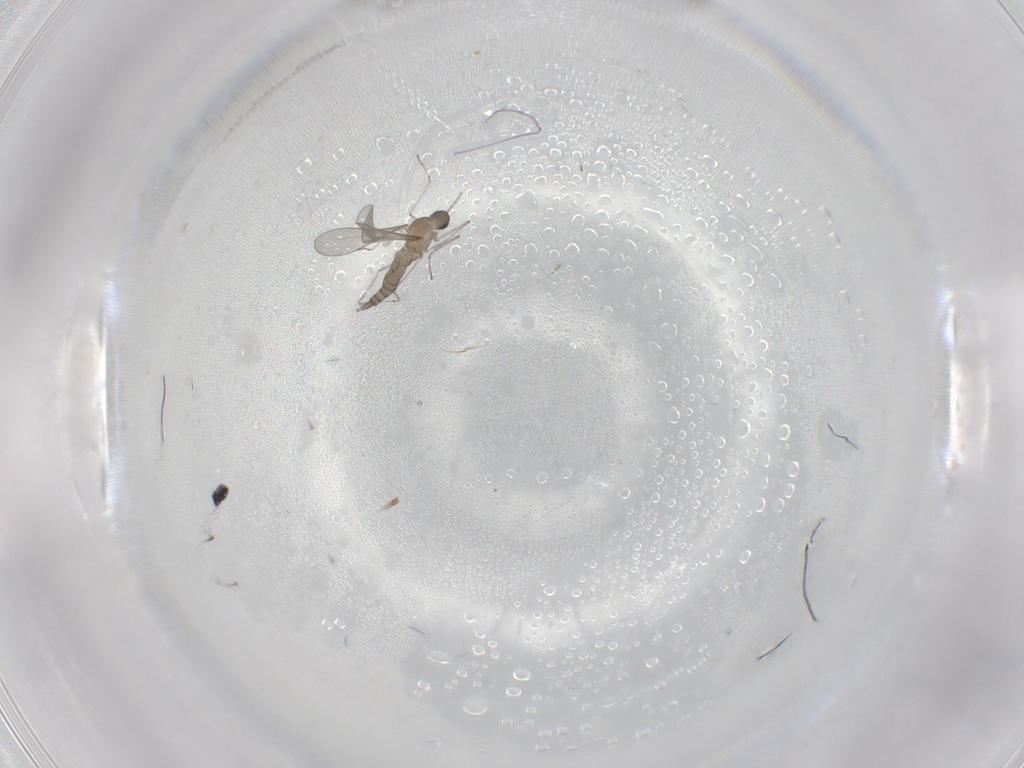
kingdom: Animalia
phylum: Arthropoda
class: Insecta
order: Diptera
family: Cecidomyiidae
